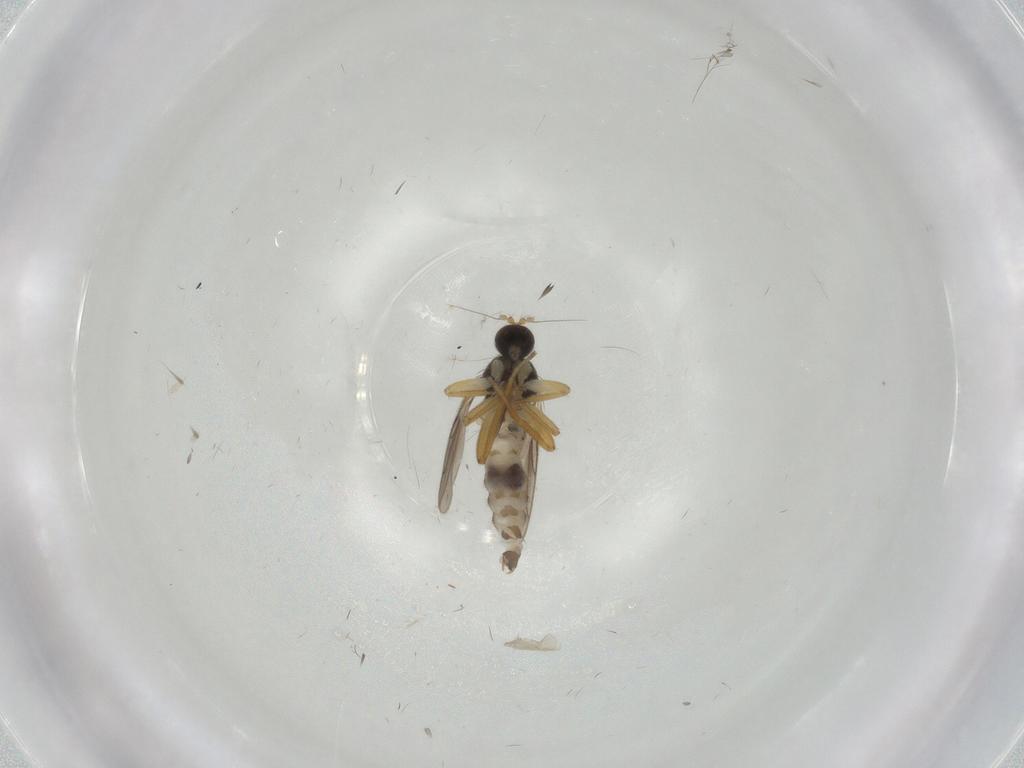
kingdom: Animalia
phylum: Arthropoda
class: Insecta
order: Diptera
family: Hybotidae
